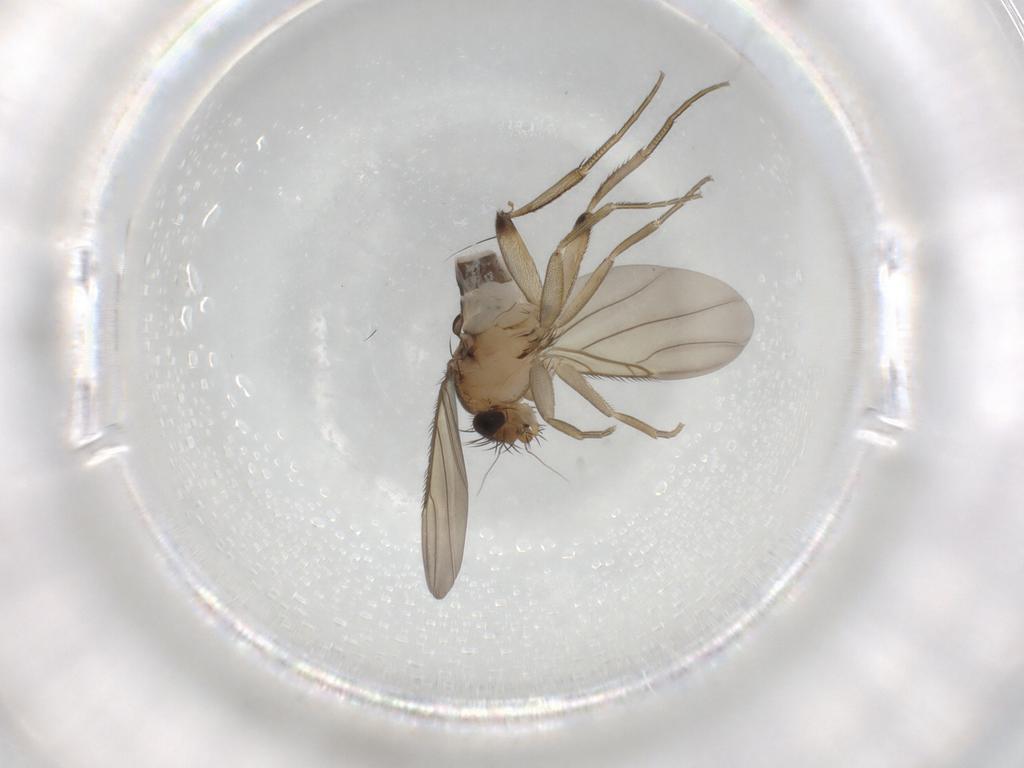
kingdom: Animalia
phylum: Arthropoda
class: Insecta
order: Diptera
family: Phoridae
